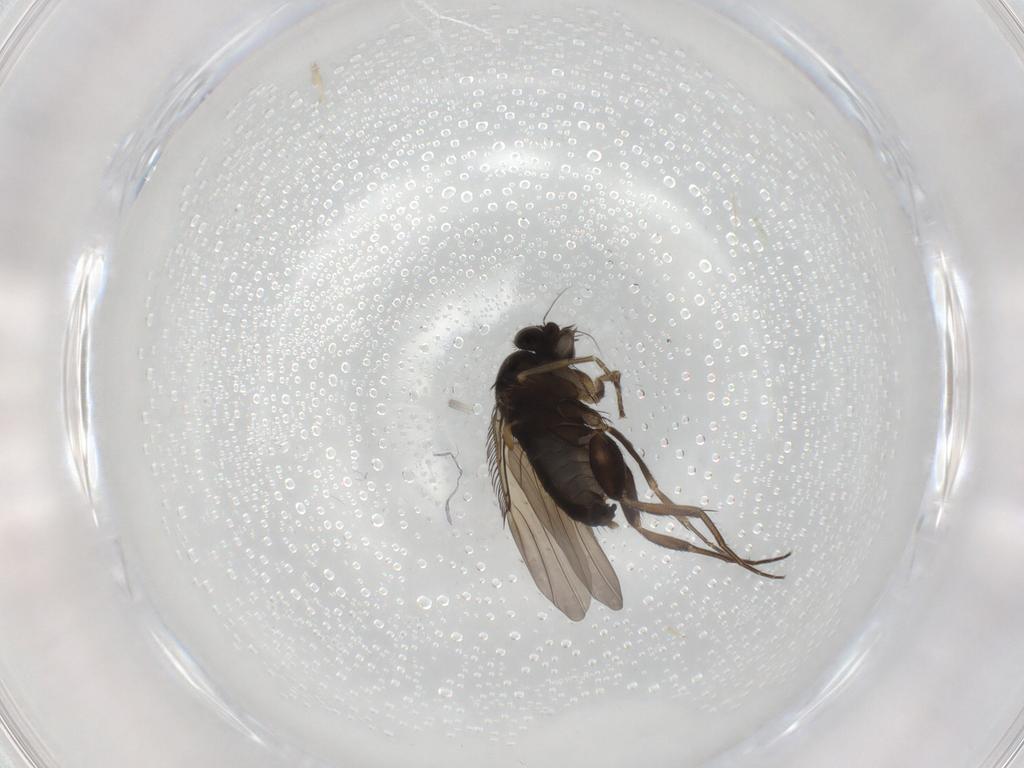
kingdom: Animalia
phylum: Arthropoda
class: Insecta
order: Diptera
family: Phoridae
